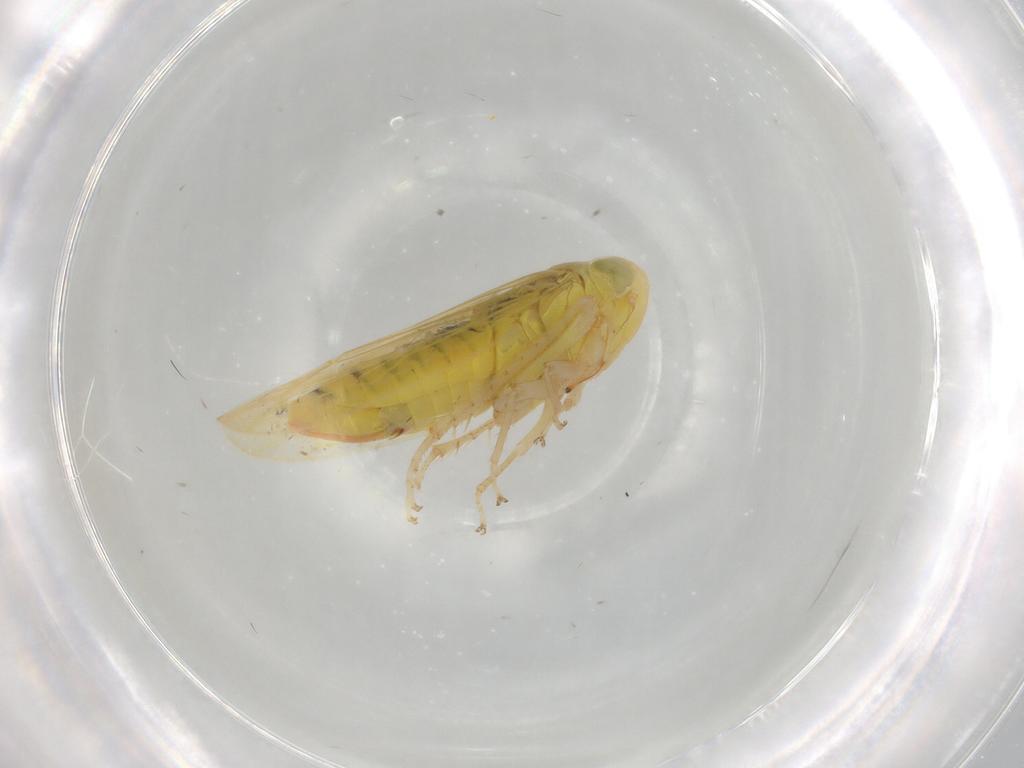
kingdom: Animalia
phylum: Arthropoda
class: Insecta
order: Hemiptera
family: Cicadellidae
